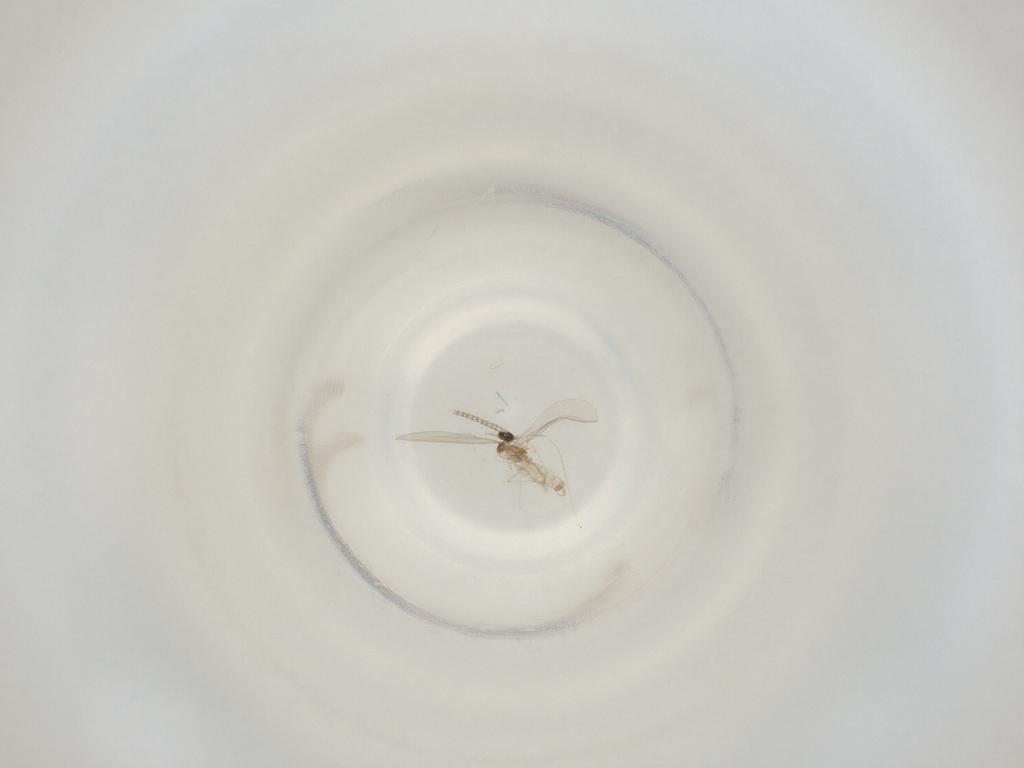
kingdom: Animalia
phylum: Arthropoda
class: Insecta
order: Diptera
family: Cecidomyiidae
